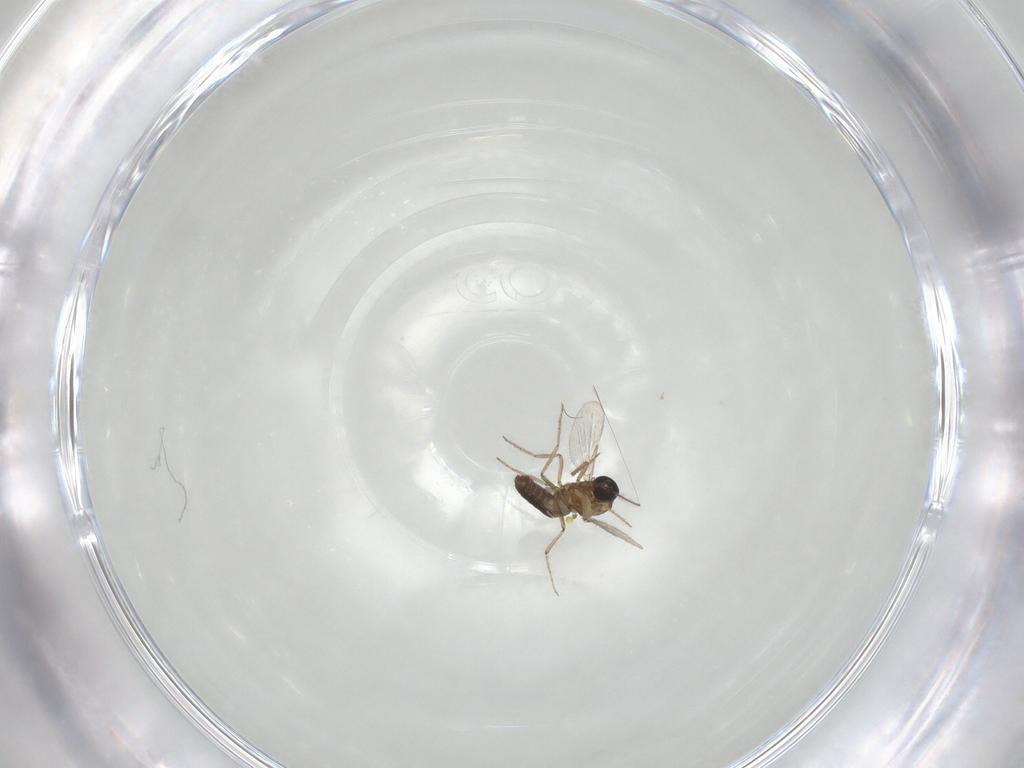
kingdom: Animalia
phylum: Arthropoda
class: Insecta
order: Diptera
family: Ceratopogonidae
